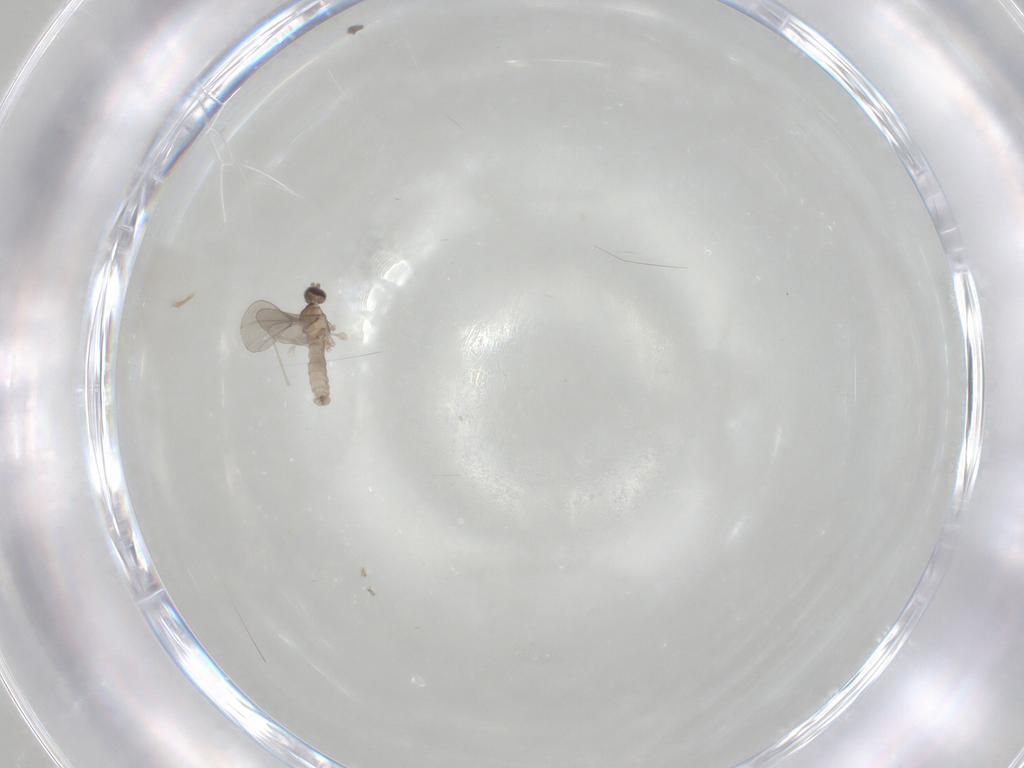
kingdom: Animalia
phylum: Arthropoda
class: Insecta
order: Diptera
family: Cecidomyiidae
